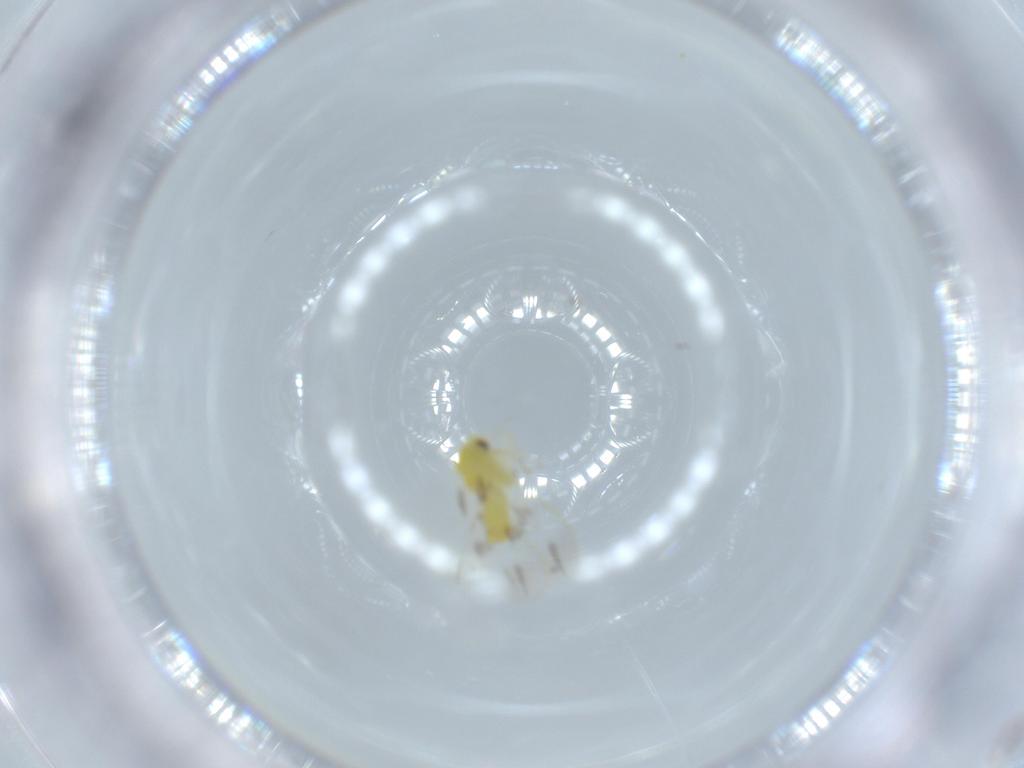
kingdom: Animalia
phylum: Arthropoda
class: Insecta
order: Hemiptera
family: Aleyrodidae
